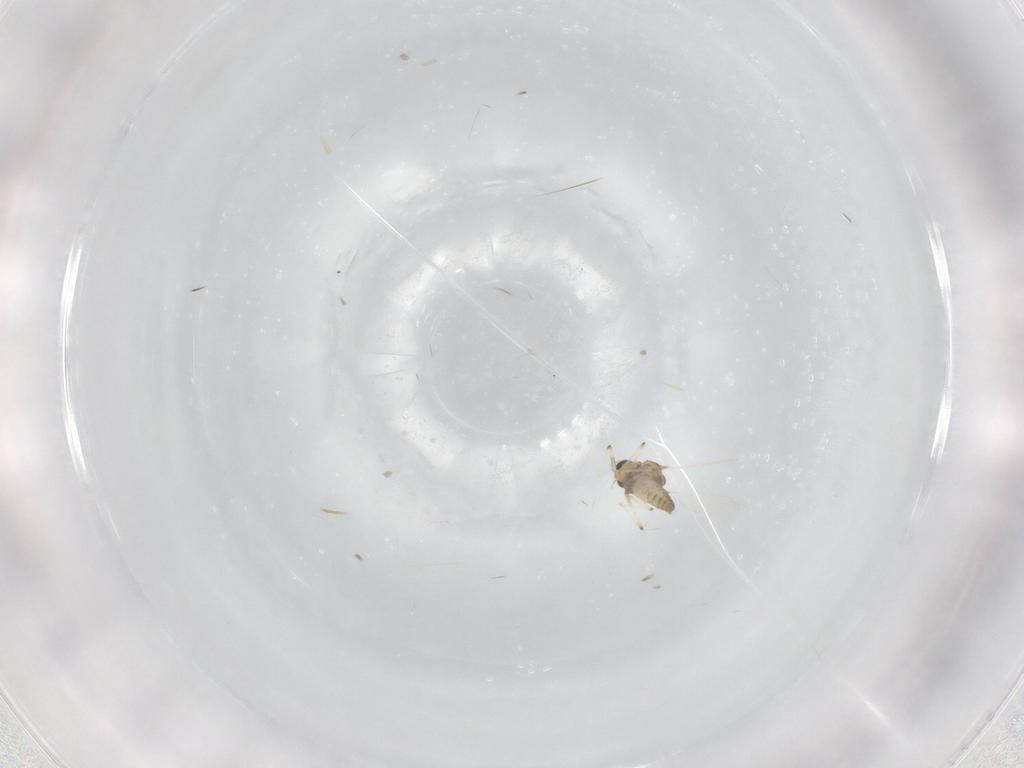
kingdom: Animalia
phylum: Arthropoda
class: Insecta
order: Diptera
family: Chironomidae
